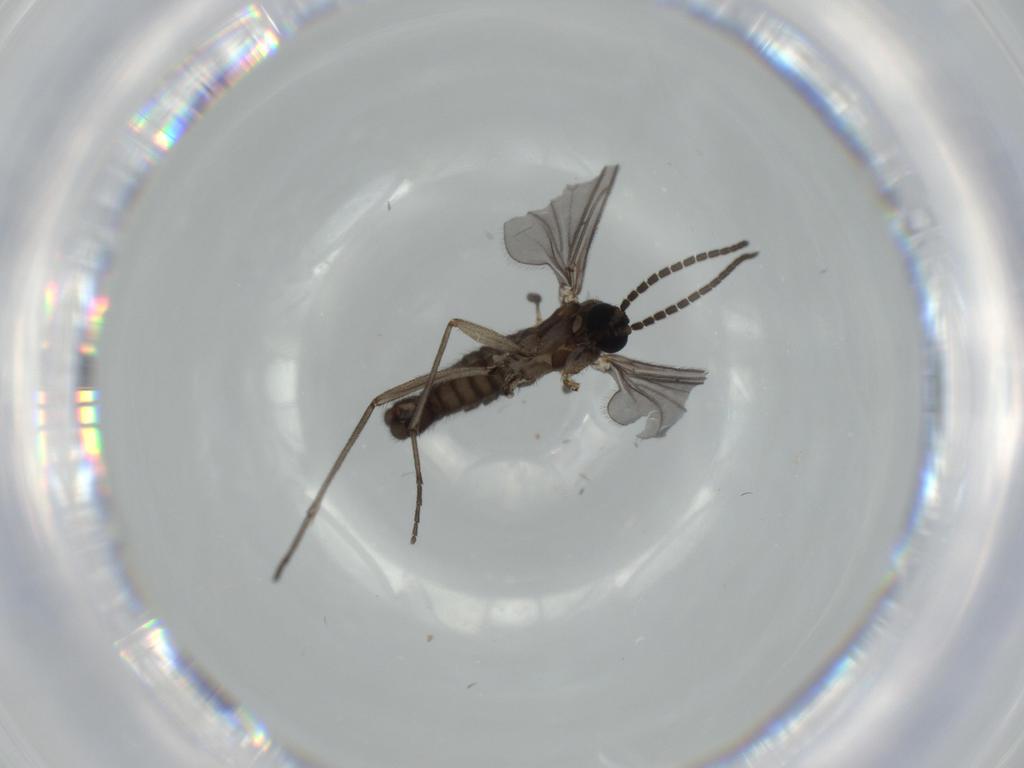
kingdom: Animalia
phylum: Arthropoda
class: Insecta
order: Diptera
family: Sciaridae
